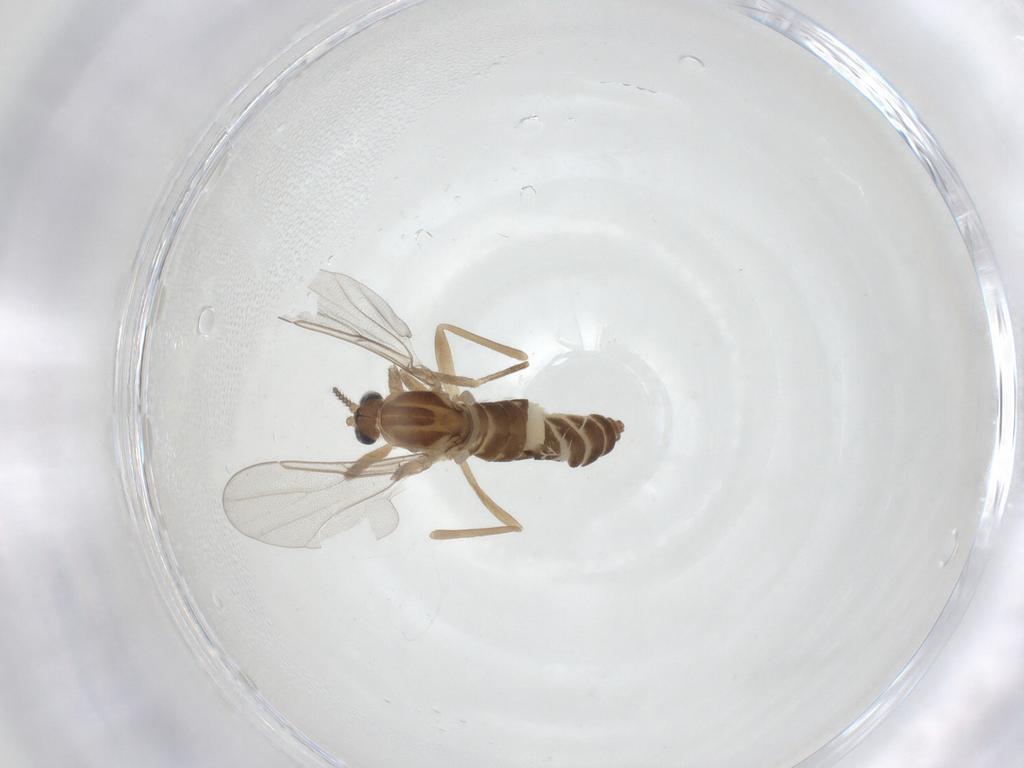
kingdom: Animalia
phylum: Arthropoda
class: Insecta
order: Diptera
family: Cecidomyiidae
